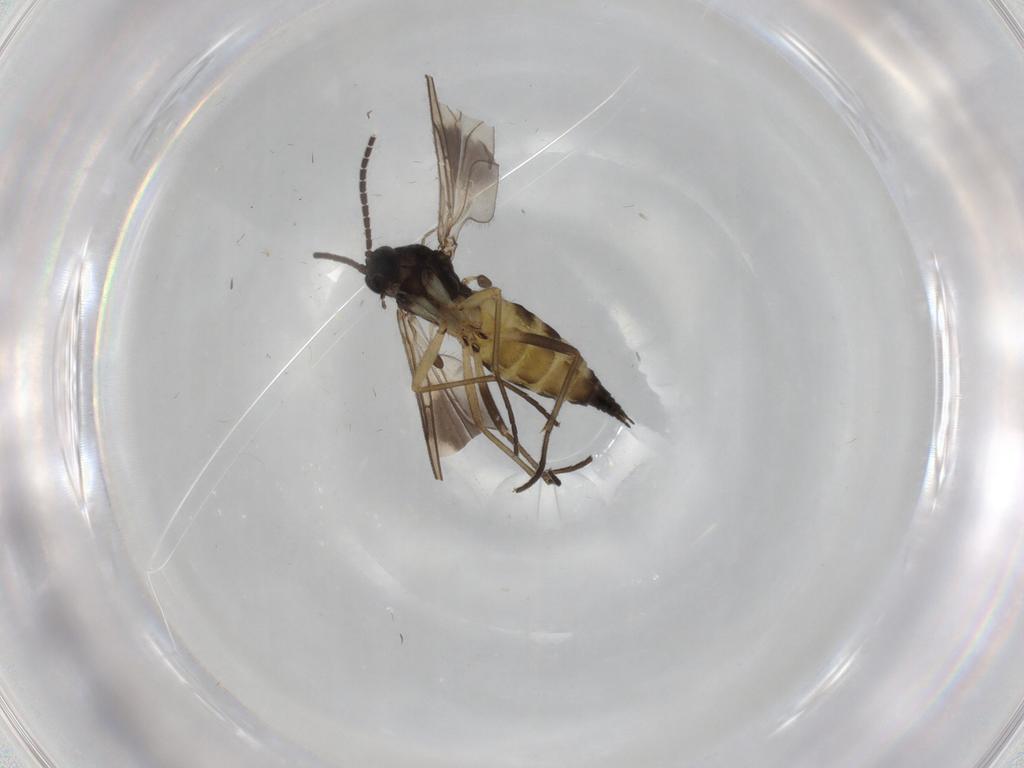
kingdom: Animalia
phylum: Arthropoda
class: Insecta
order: Diptera
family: Sciaridae
